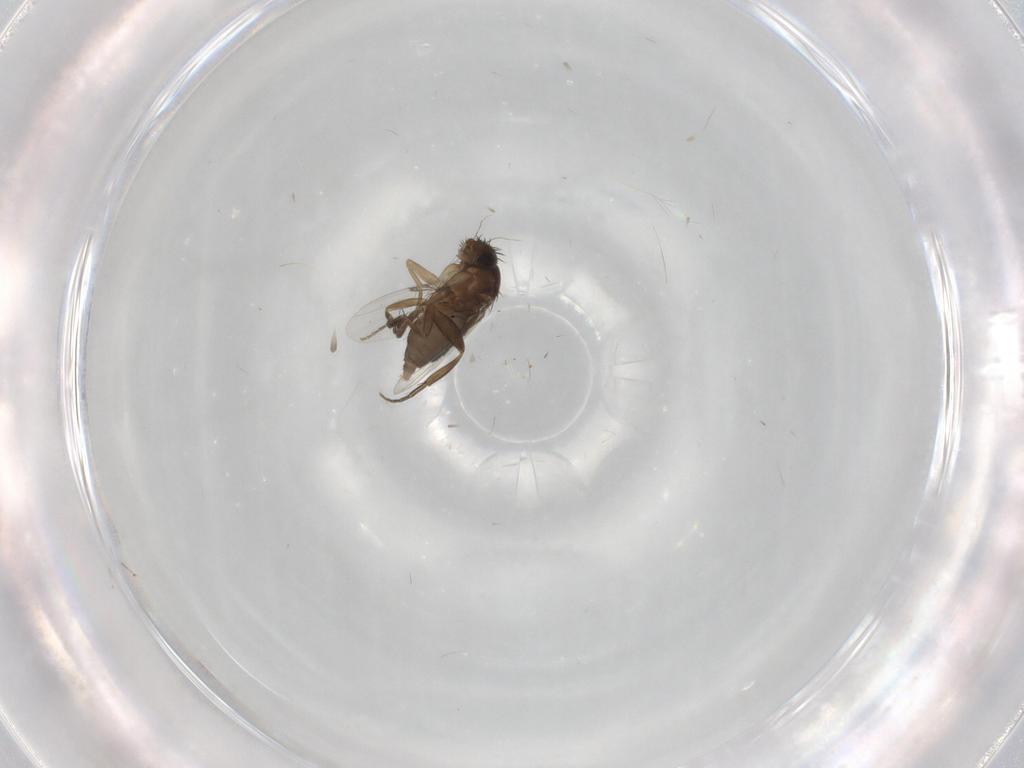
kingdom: Animalia
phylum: Arthropoda
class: Insecta
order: Diptera
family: Phoridae
